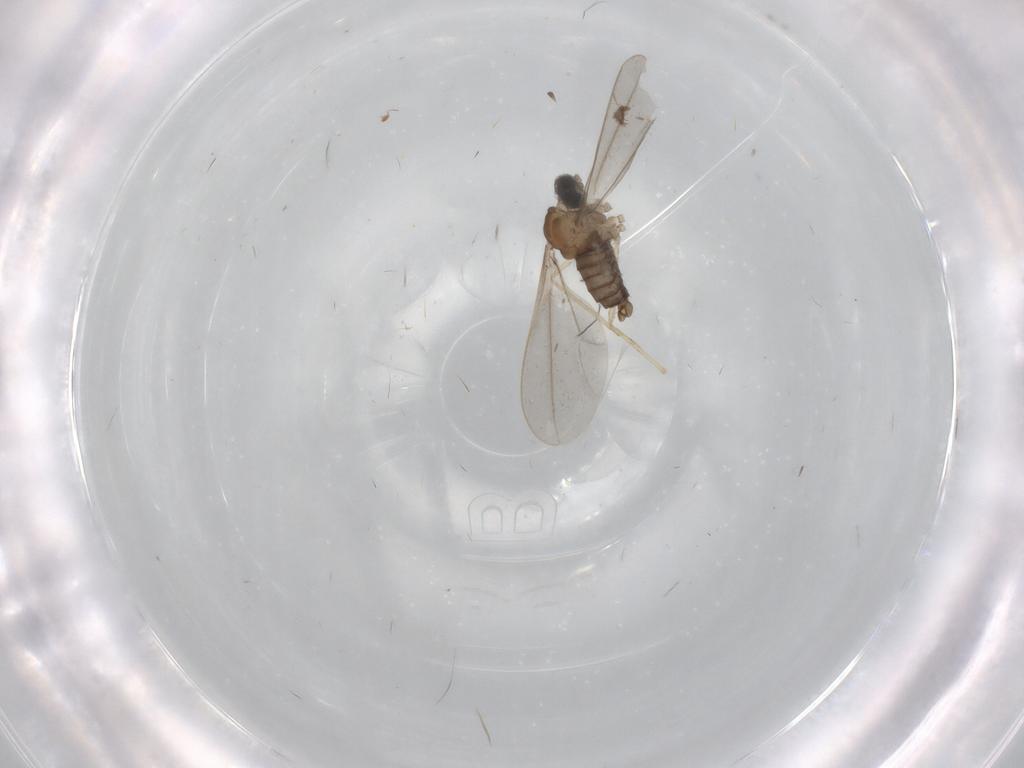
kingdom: Animalia
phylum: Arthropoda
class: Insecta
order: Diptera
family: Cecidomyiidae
